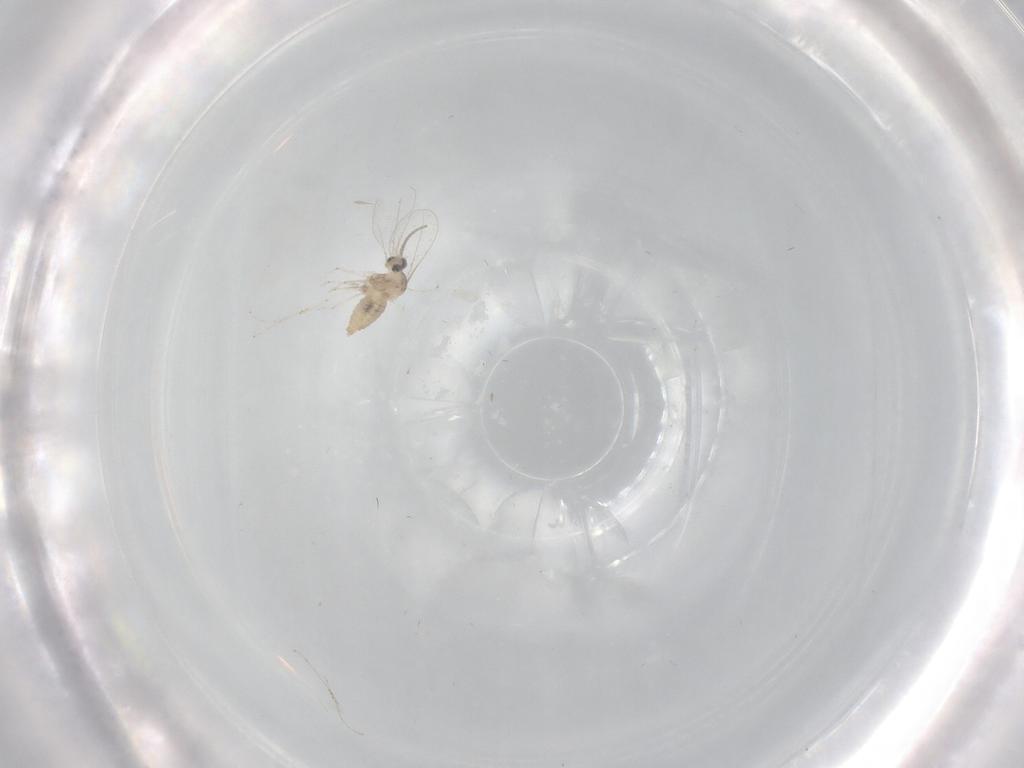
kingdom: Animalia
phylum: Arthropoda
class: Insecta
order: Diptera
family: Cecidomyiidae
